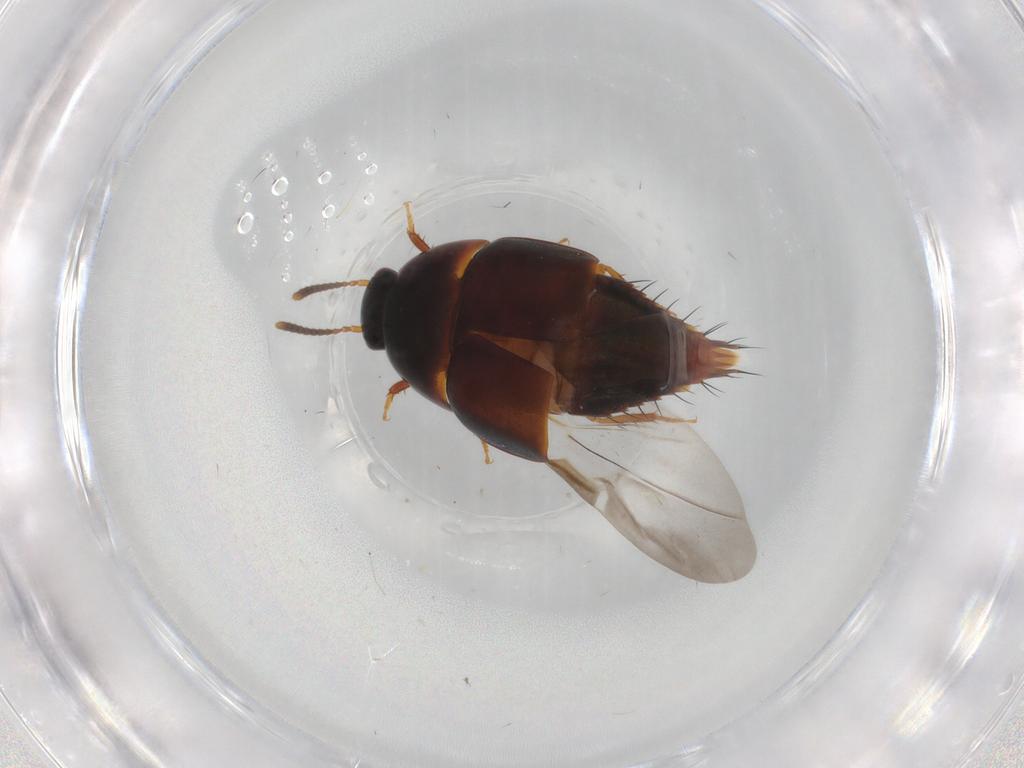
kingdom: Animalia
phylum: Arthropoda
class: Insecta
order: Coleoptera
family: Staphylinidae
